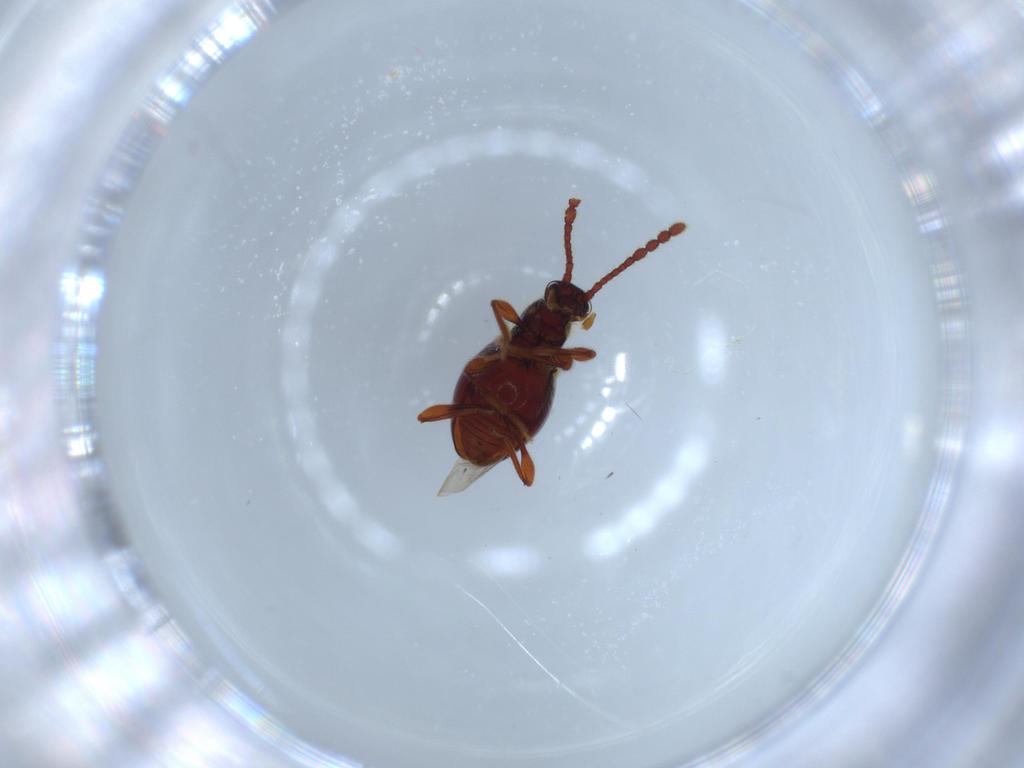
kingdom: Animalia
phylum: Arthropoda
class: Insecta
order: Coleoptera
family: Staphylinidae
